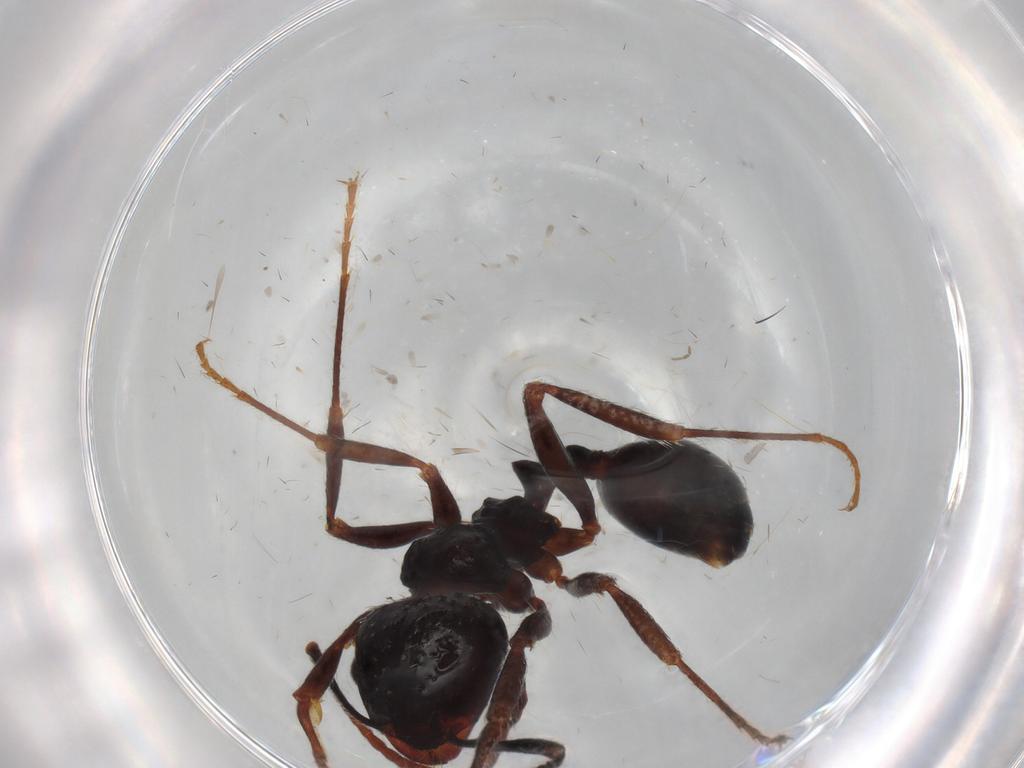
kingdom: Animalia
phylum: Arthropoda
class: Insecta
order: Hymenoptera
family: Formicidae
